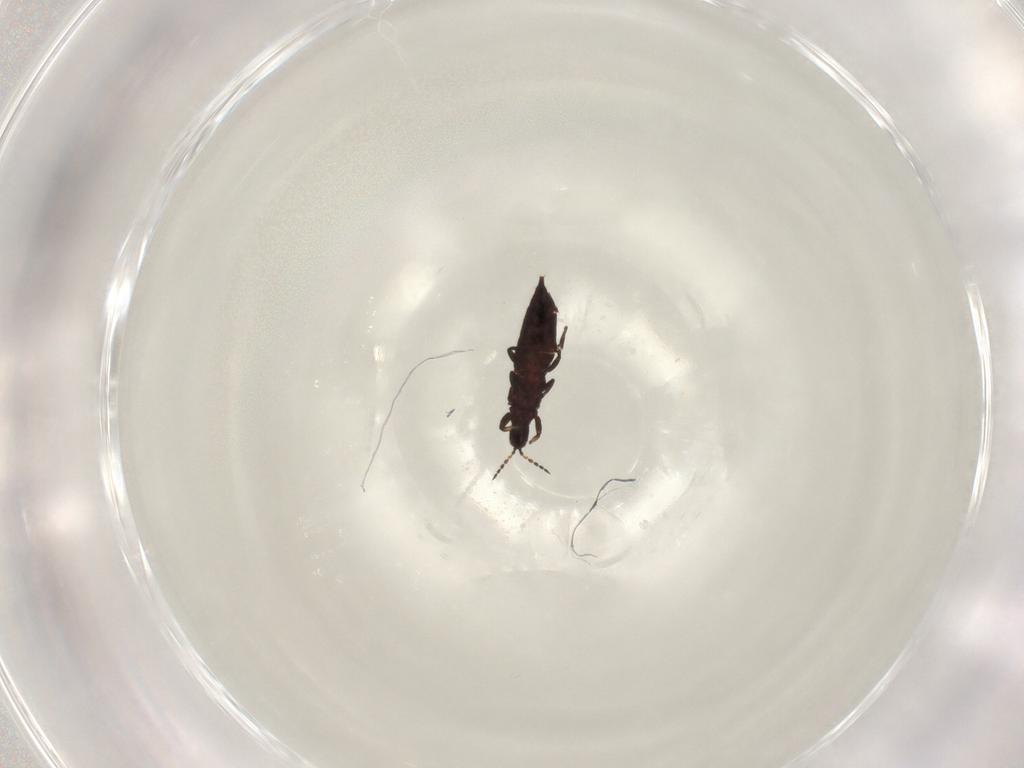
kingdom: Animalia
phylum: Arthropoda
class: Insecta
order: Thysanoptera
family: Phlaeothripidae
